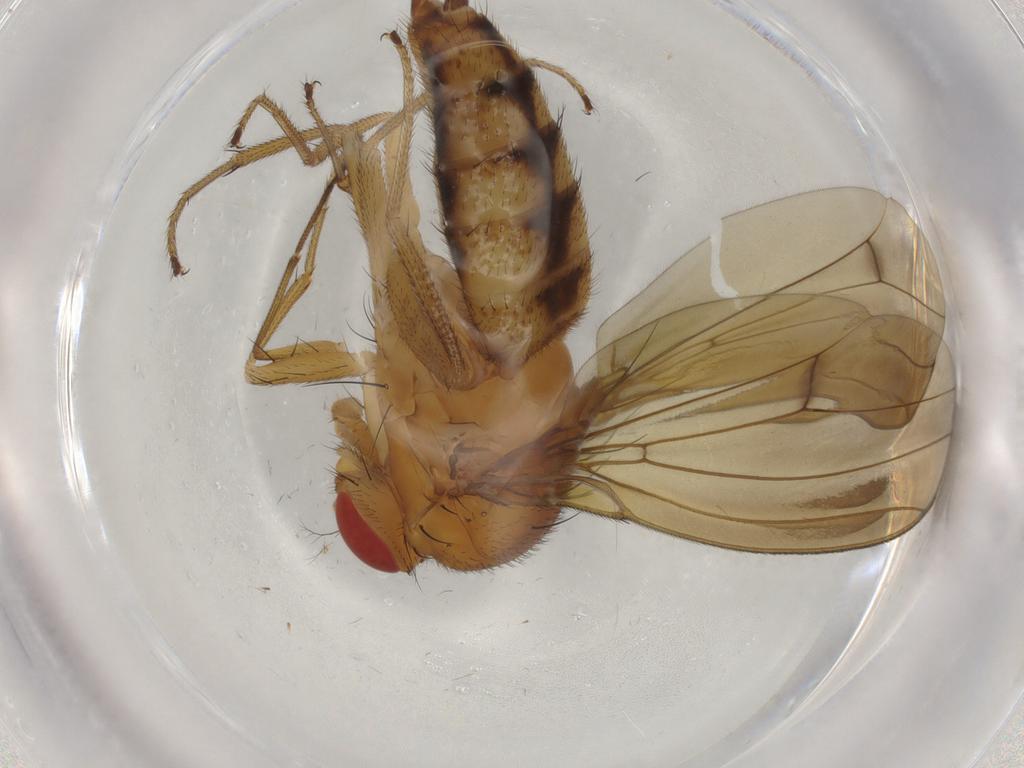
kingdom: Animalia
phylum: Arthropoda
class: Insecta
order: Diptera
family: Drosophilidae
